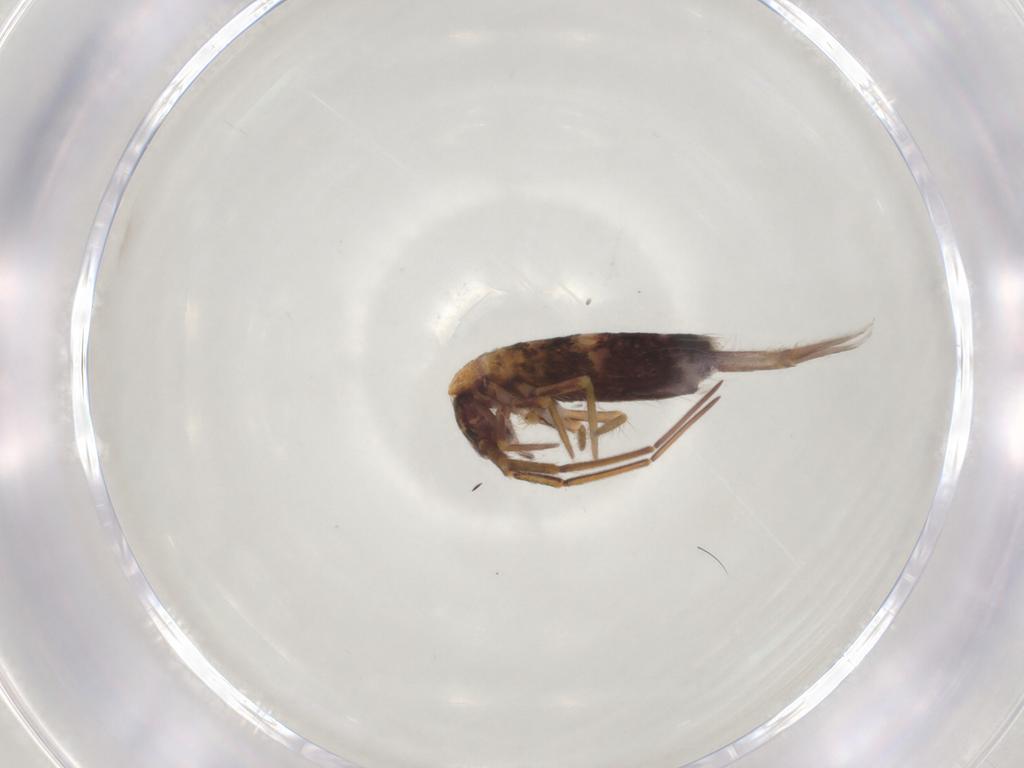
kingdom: Animalia
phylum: Arthropoda
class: Collembola
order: Entomobryomorpha
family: Entomobryidae
